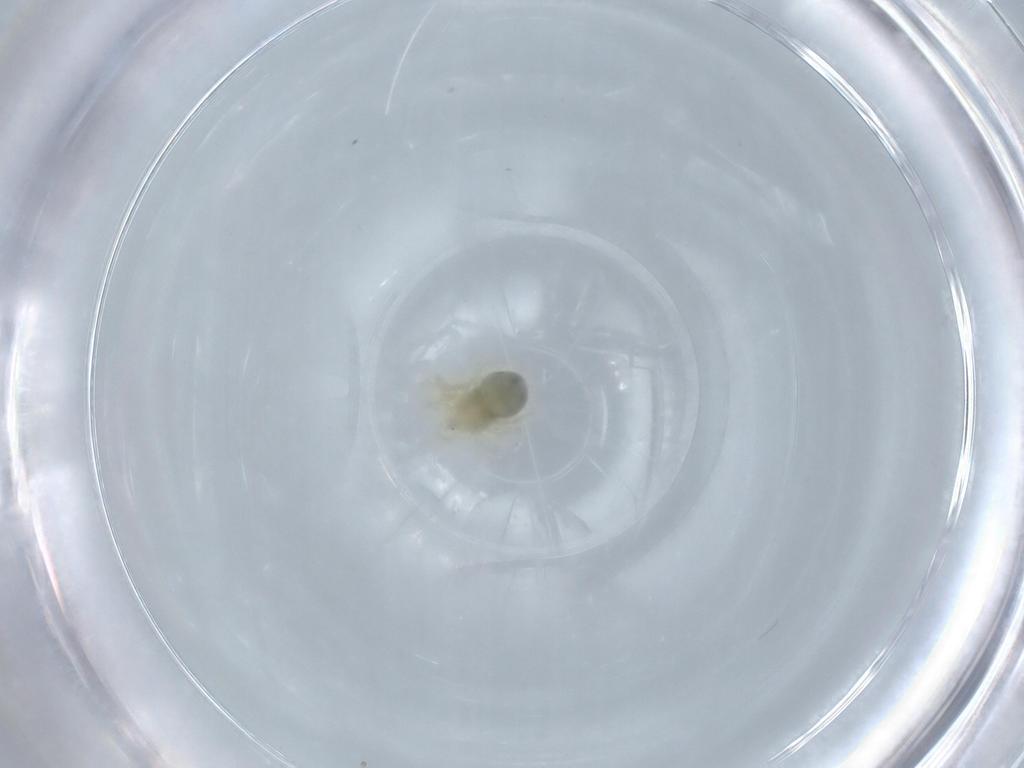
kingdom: Animalia
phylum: Arthropoda
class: Arachnida
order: Trombidiformes
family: Anystidae
